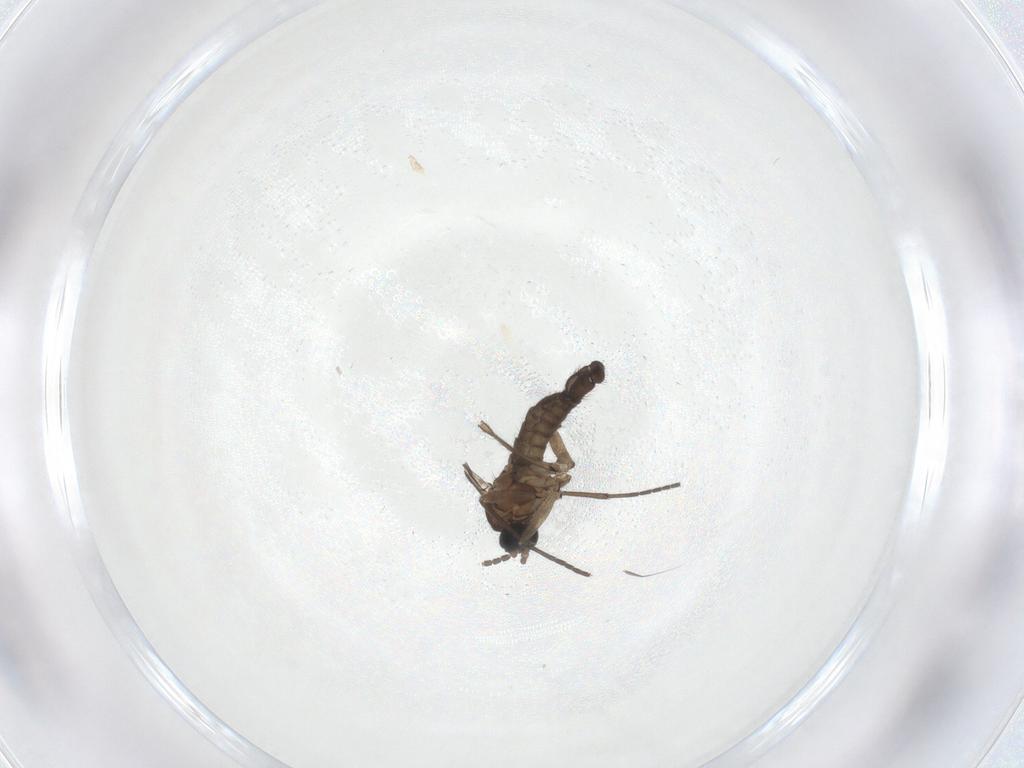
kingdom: Animalia
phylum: Arthropoda
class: Insecta
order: Diptera
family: Sciaridae
